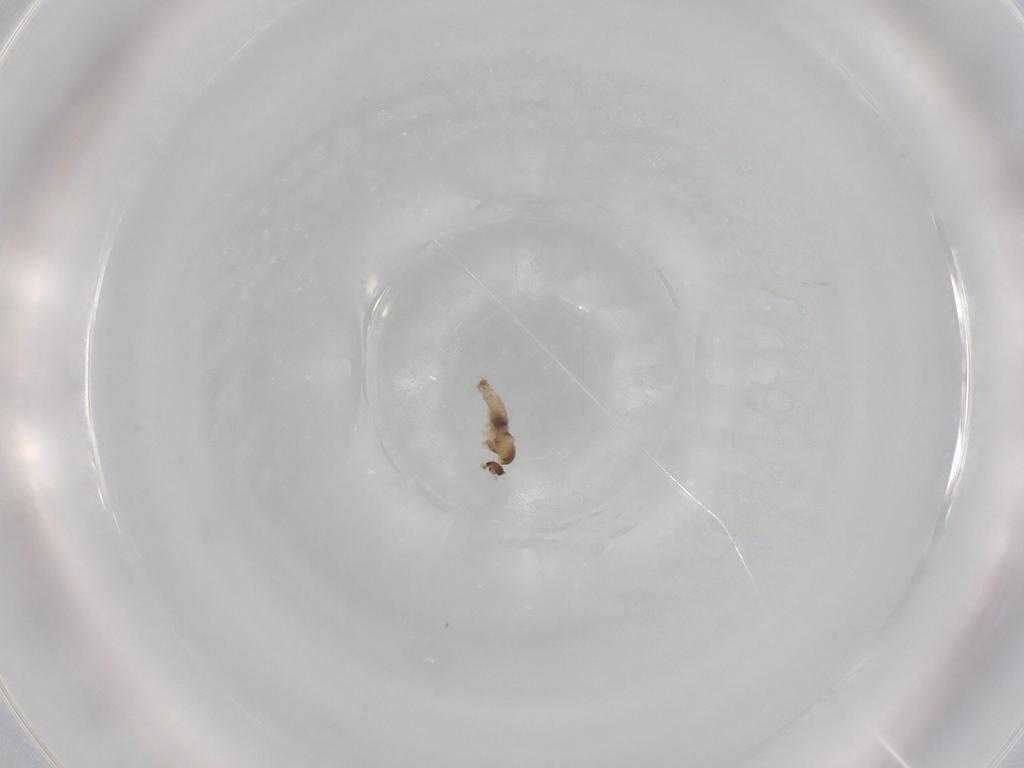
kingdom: Animalia
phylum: Arthropoda
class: Insecta
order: Diptera
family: Cecidomyiidae
